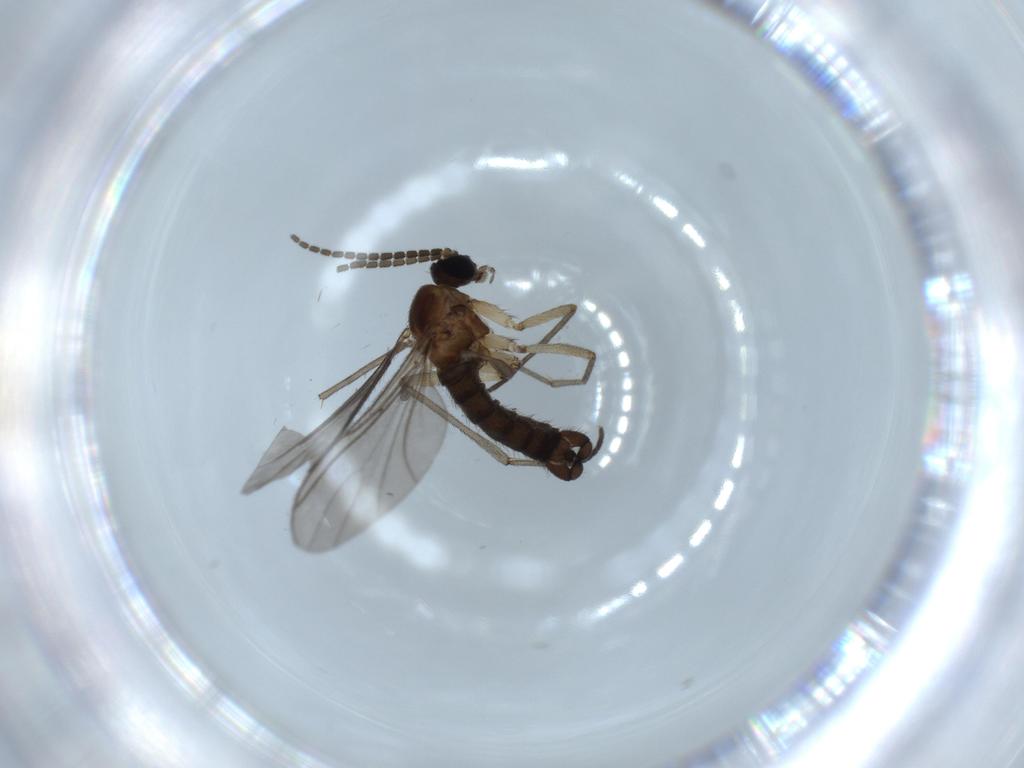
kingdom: Animalia
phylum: Arthropoda
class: Insecta
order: Diptera
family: Sciaridae
